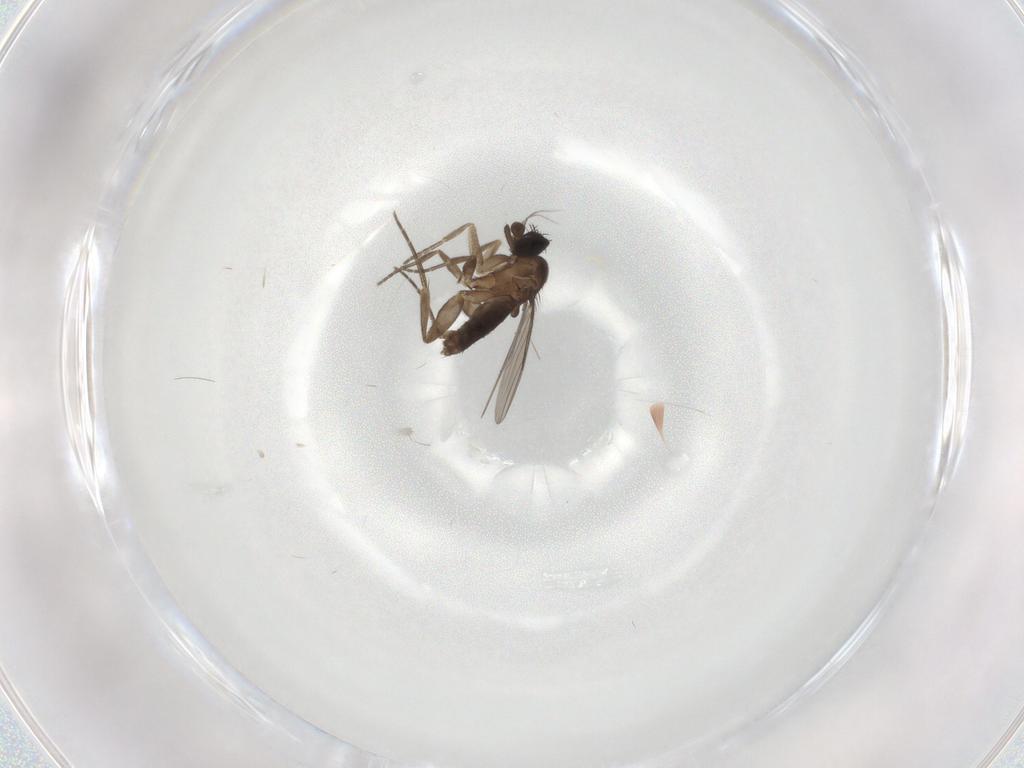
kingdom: Animalia
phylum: Arthropoda
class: Insecta
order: Diptera
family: Phoridae
